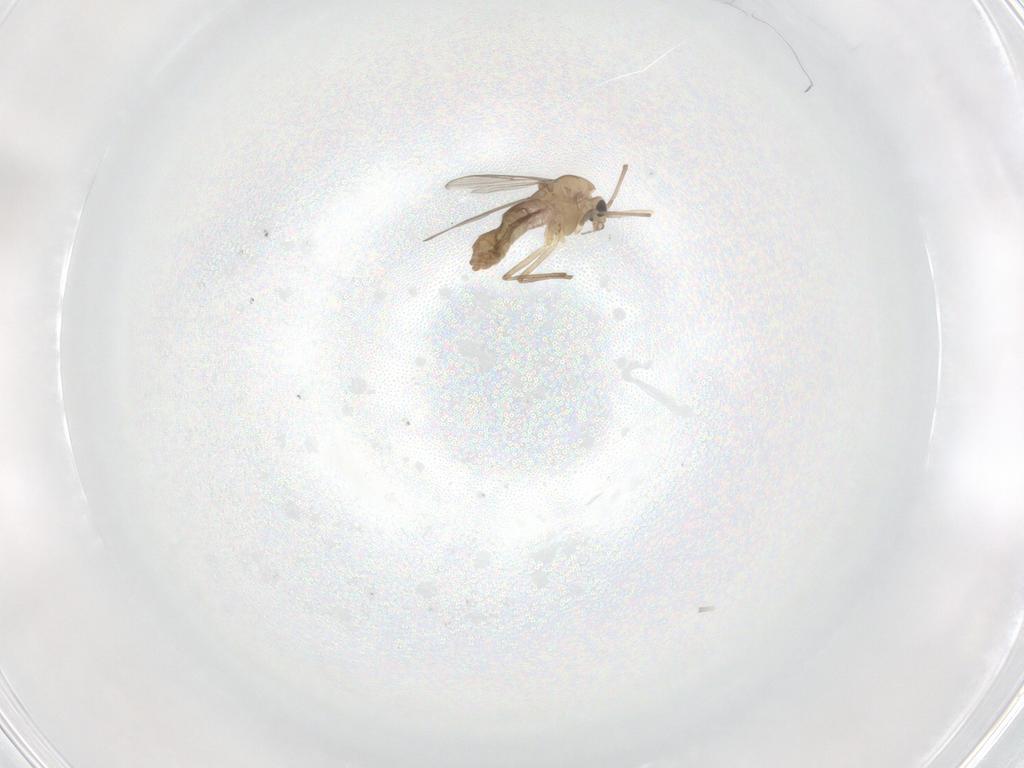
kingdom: Animalia
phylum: Arthropoda
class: Insecta
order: Diptera
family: Chironomidae
